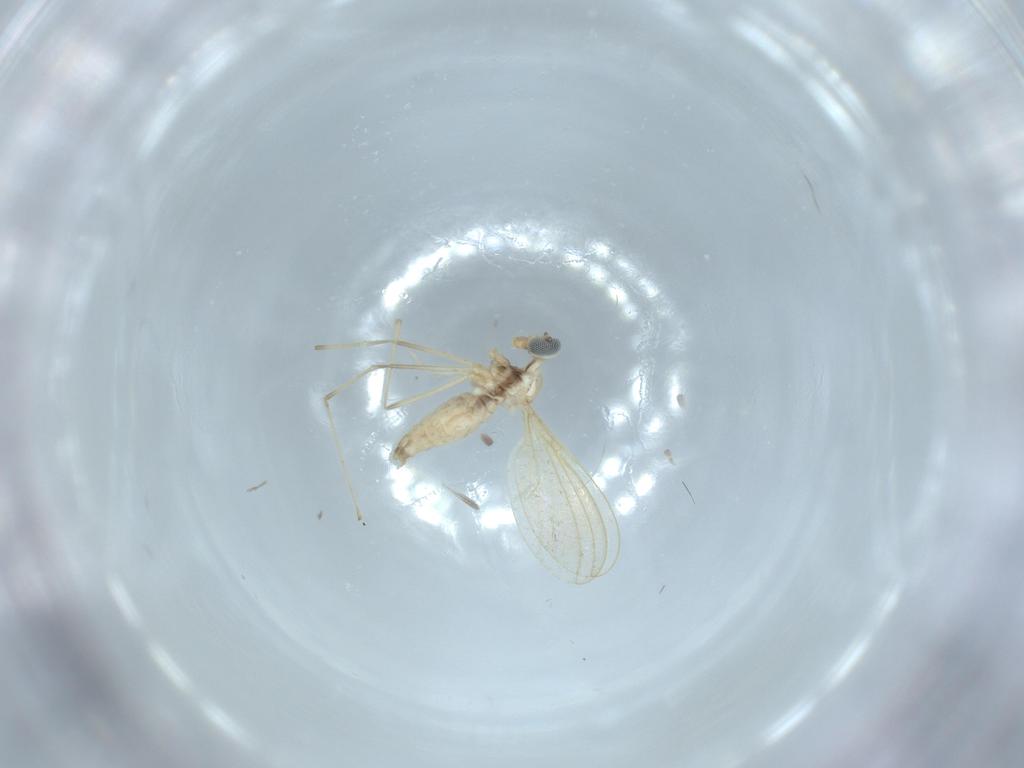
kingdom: Animalia
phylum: Arthropoda
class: Insecta
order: Diptera
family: Cecidomyiidae
